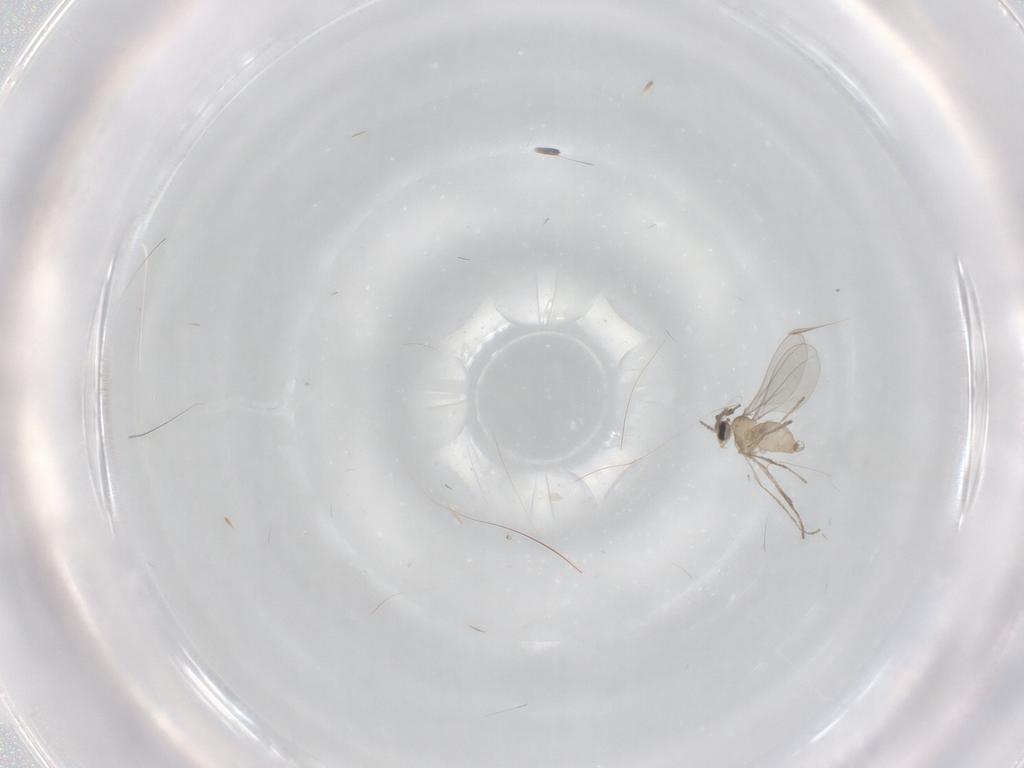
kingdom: Animalia
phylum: Arthropoda
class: Insecta
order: Diptera
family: Cecidomyiidae
